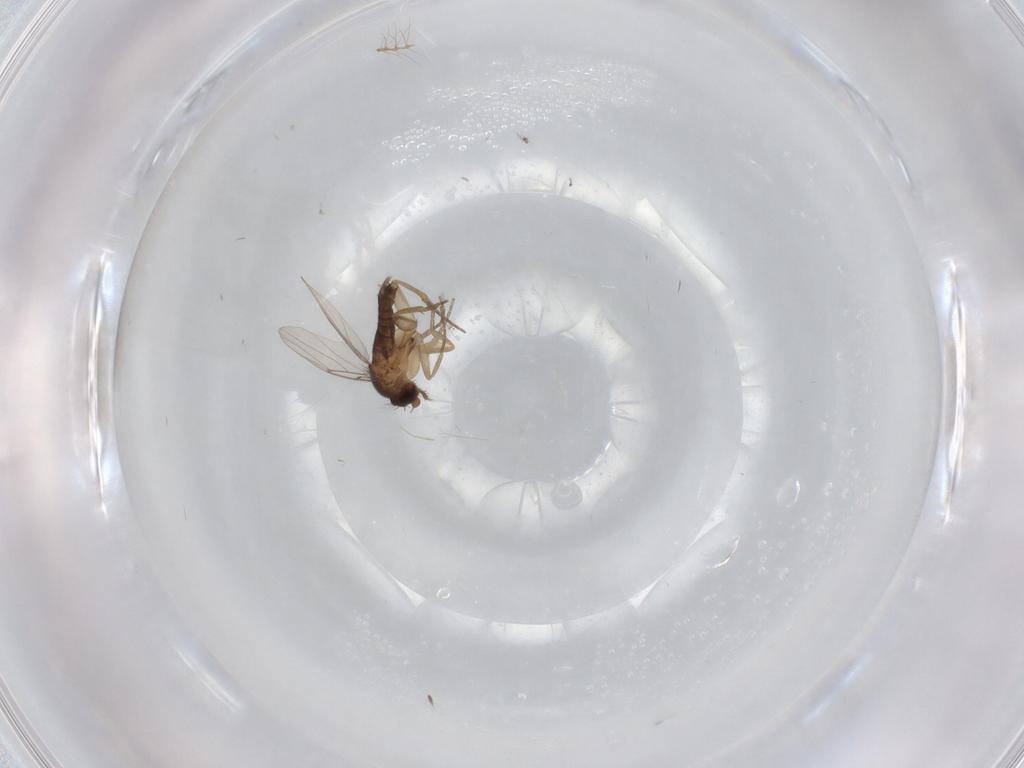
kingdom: Animalia
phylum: Arthropoda
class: Insecta
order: Diptera
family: Phoridae
